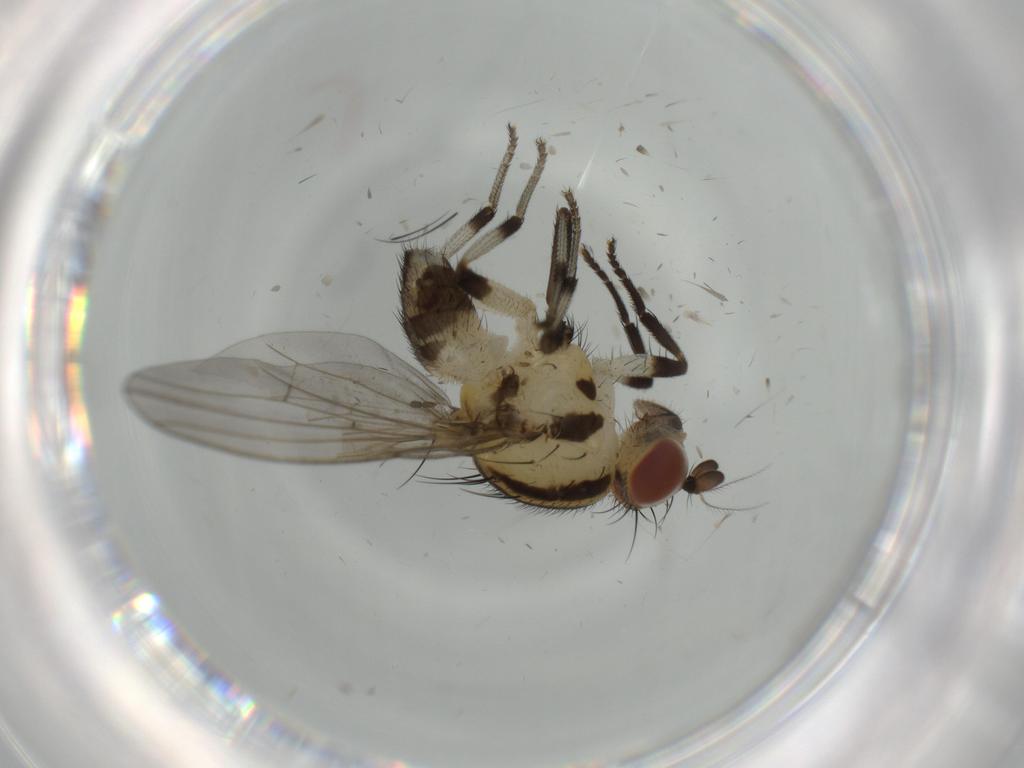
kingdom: Animalia
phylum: Arthropoda
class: Insecta
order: Diptera
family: Lauxaniidae
